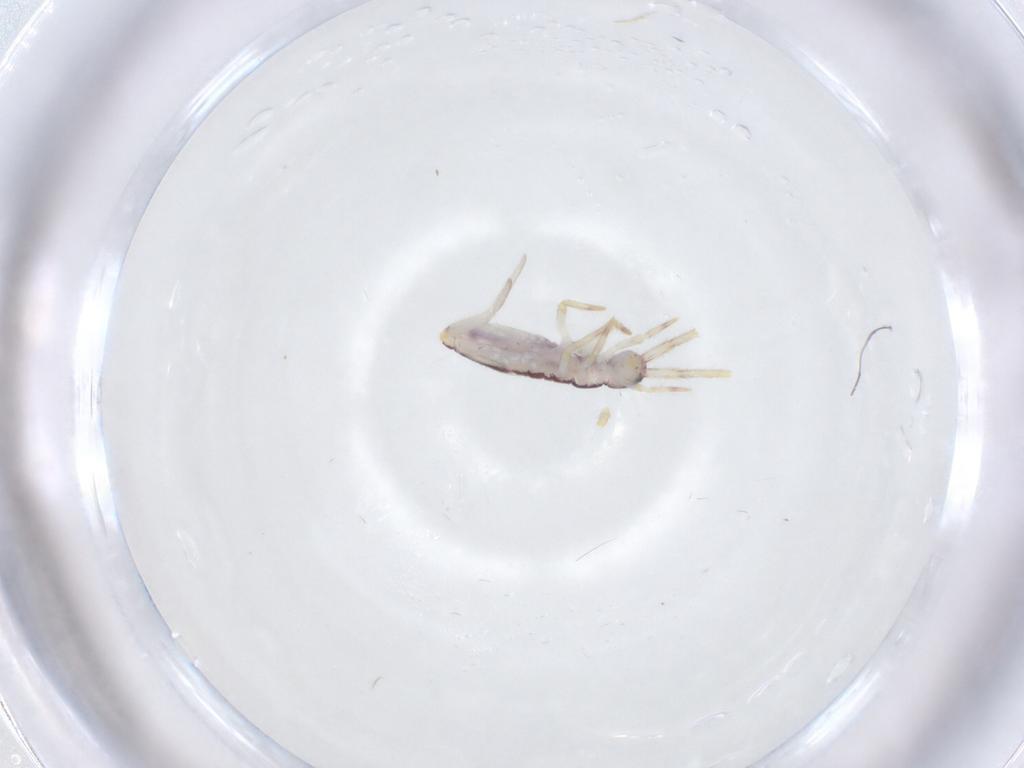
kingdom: Animalia
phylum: Arthropoda
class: Collembola
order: Entomobryomorpha
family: Entomobryidae
